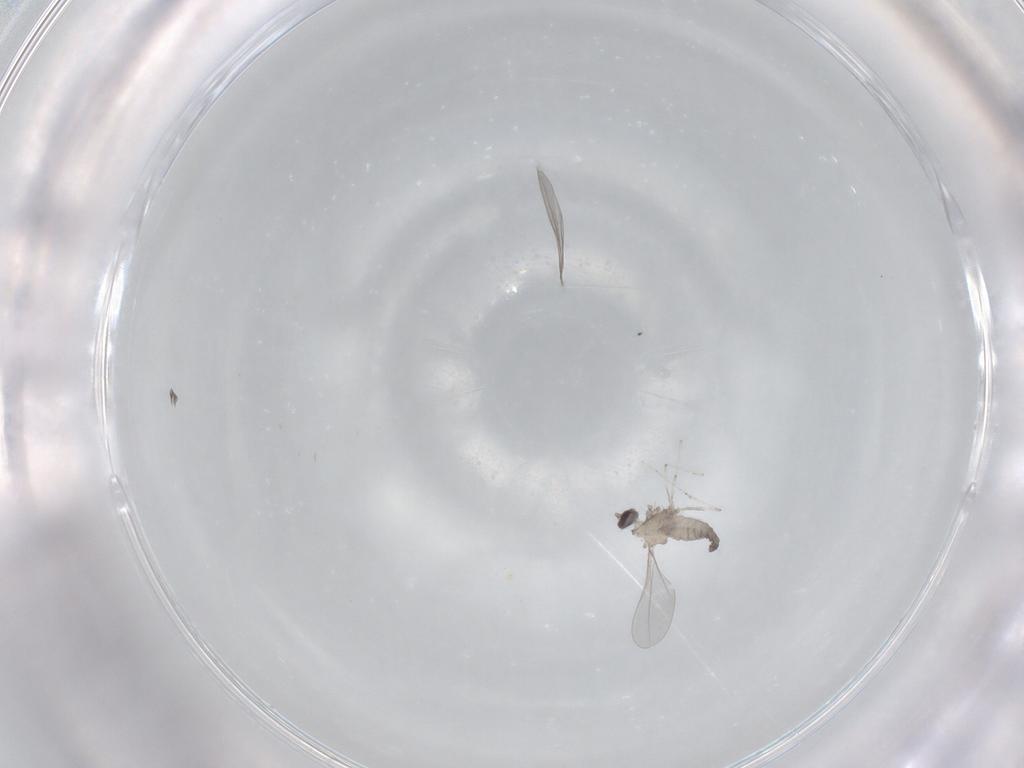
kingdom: Animalia
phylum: Arthropoda
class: Insecta
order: Diptera
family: Cecidomyiidae
